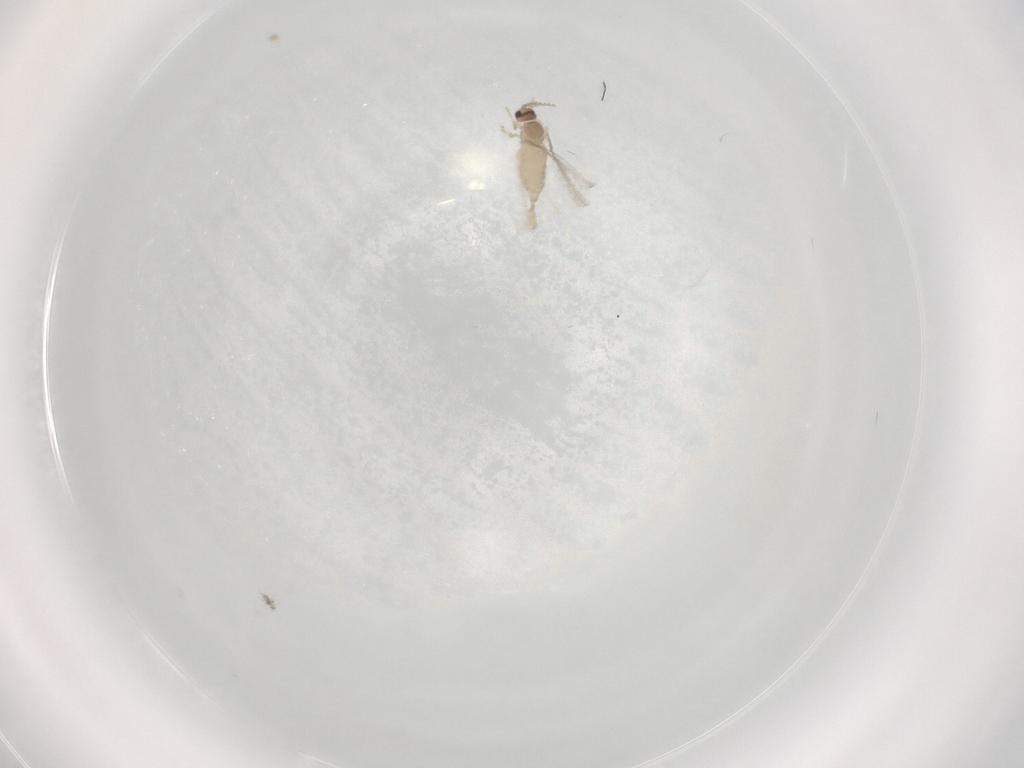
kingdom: Animalia
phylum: Arthropoda
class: Insecta
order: Diptera
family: Cecidomyiidae
